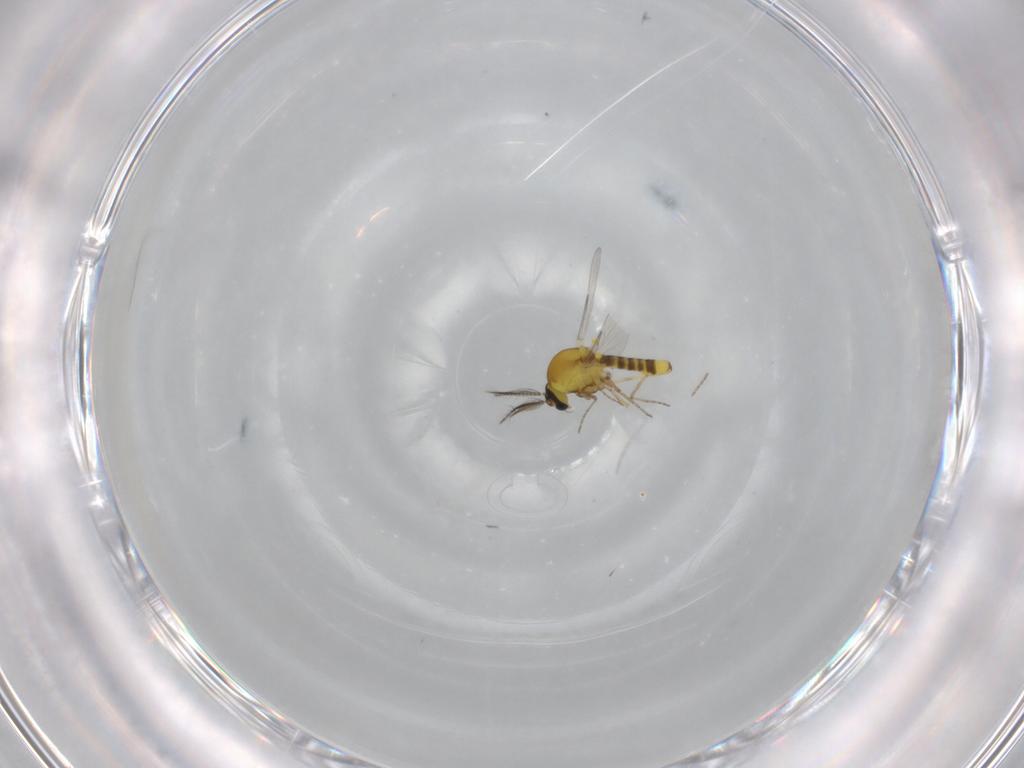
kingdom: Animalia
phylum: Arthropoda
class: Insecta
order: Diptera
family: Ceratopogonidae
